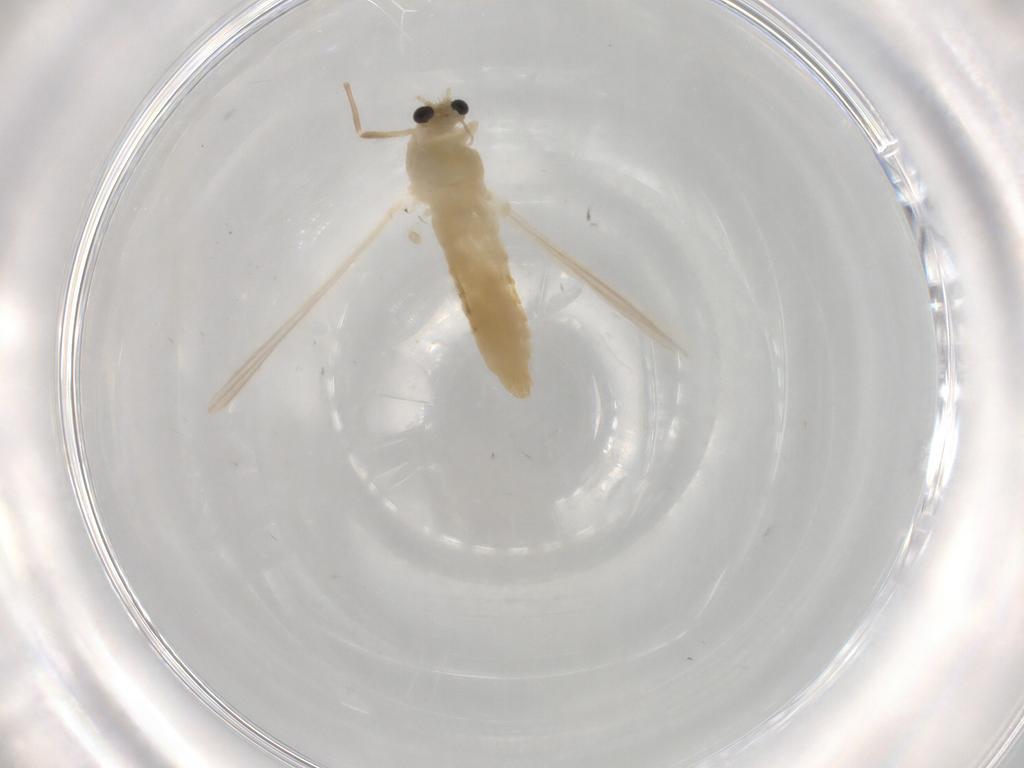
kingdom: Animalia
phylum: Arthropoda
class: Insecta
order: Diptera
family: Chironomidae
